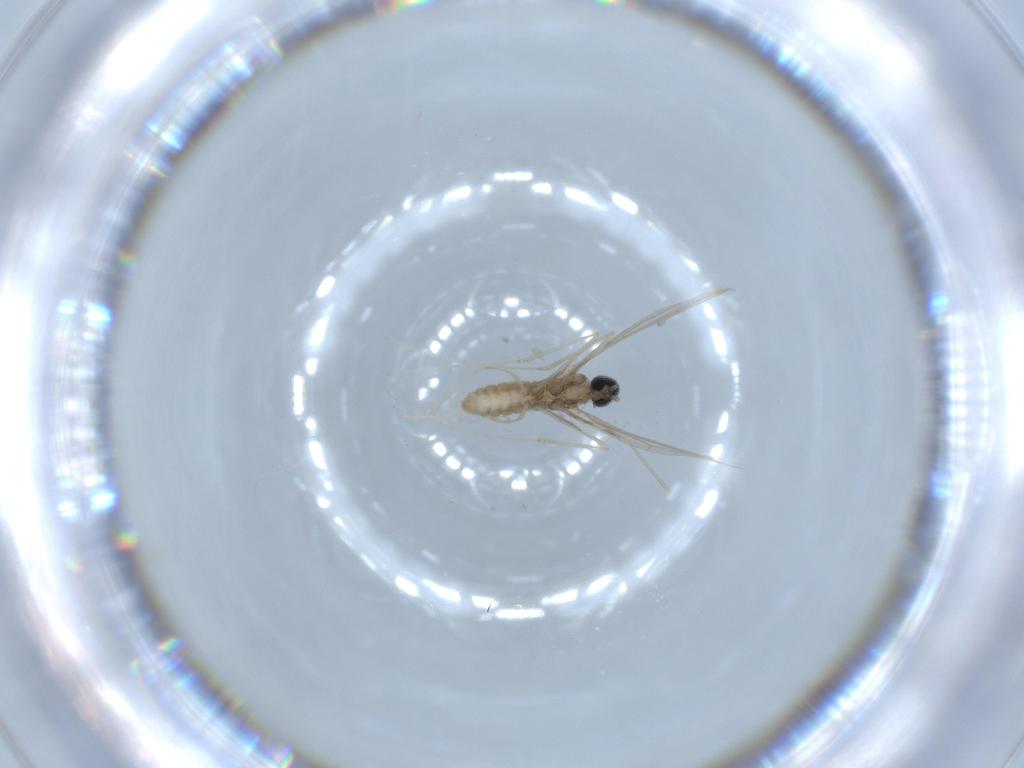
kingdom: Animalia
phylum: Arthropoda
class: Insecta
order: Diptera
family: Cecidomyiidae
